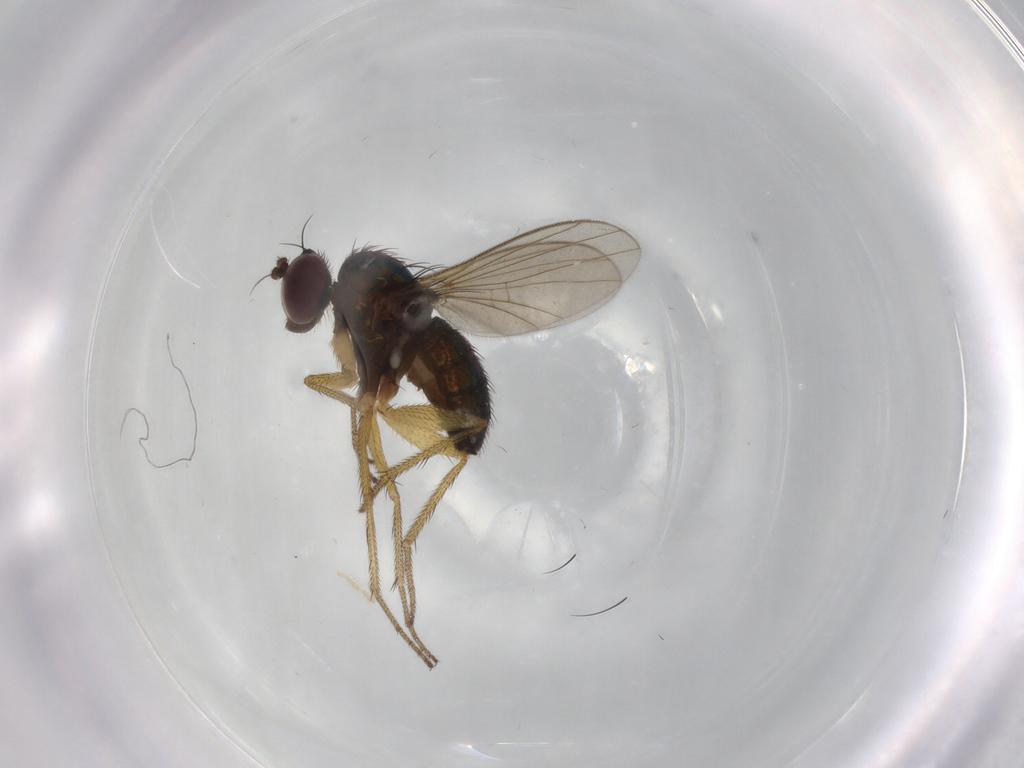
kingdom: Animalia
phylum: Arthropoda
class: Insecta
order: Diptera
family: Dolichopodidae
